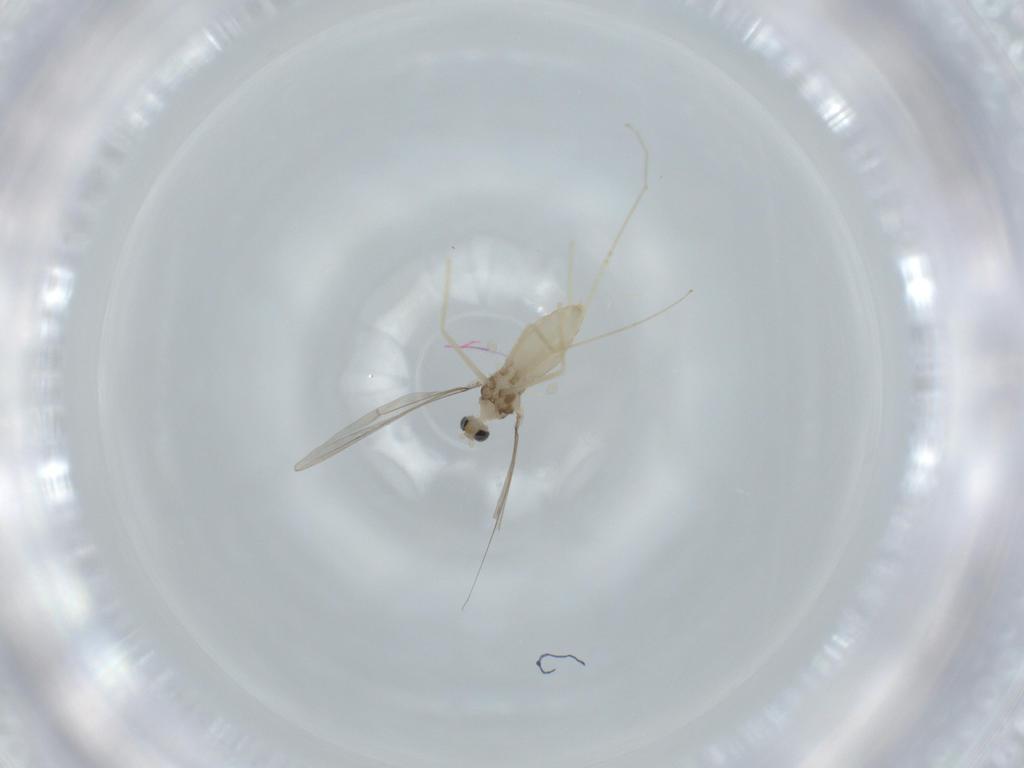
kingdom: Animalia
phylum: Arthropoda
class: Insecta
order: Diptera
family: Cecidomyiidae
